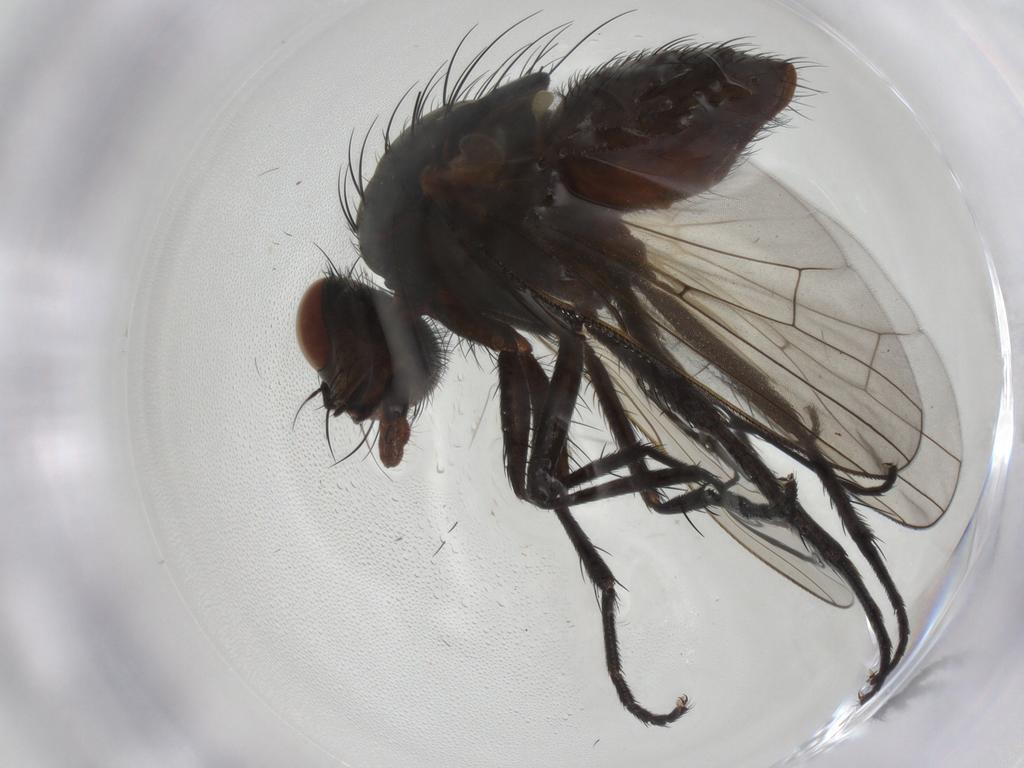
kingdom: Animalia
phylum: Arthropoda
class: Insecta
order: Diptera
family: Anthomyiidae
